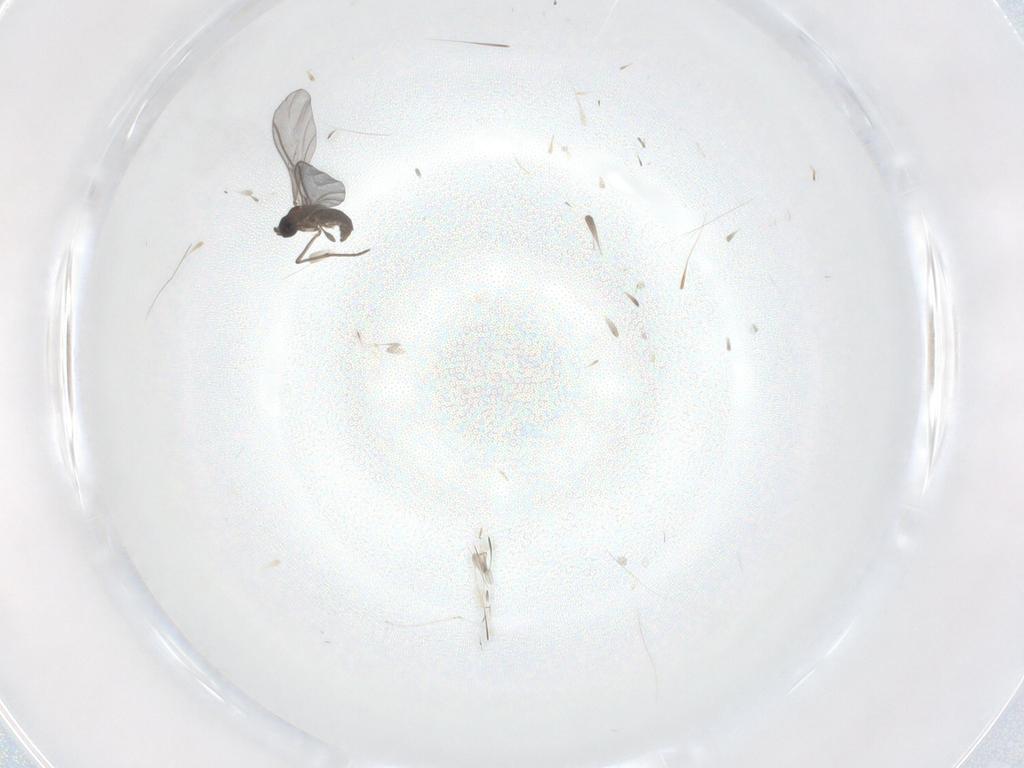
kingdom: Animalia
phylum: Arthropoda
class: Insecta
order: Diptera
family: Sciaridae
